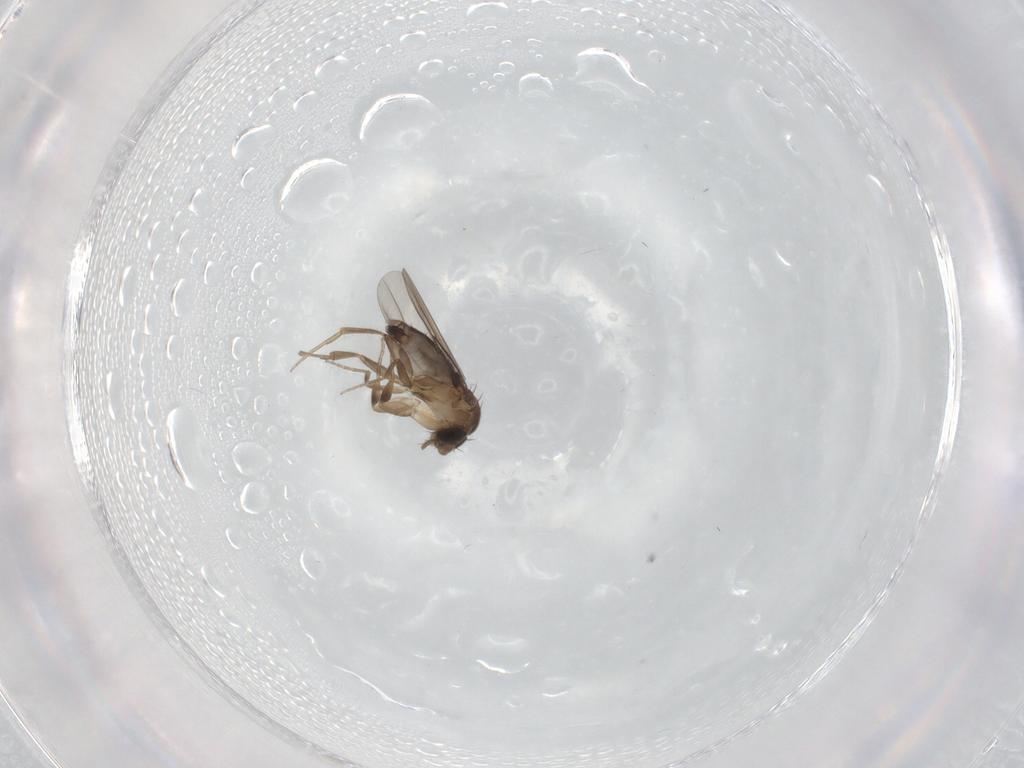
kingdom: Animalia
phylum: Arthropoda
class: Insecta
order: Diptera
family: Phoridae
